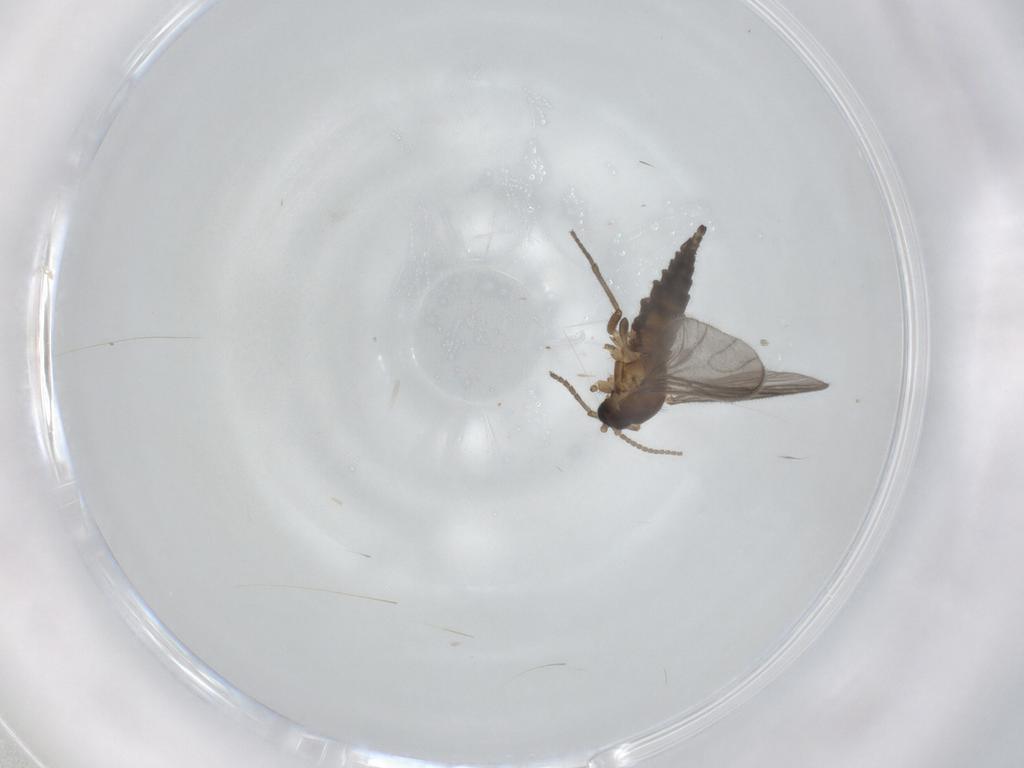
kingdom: Animalia
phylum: Arthropoda
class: Insecta
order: Diptera
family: Sciaridae
